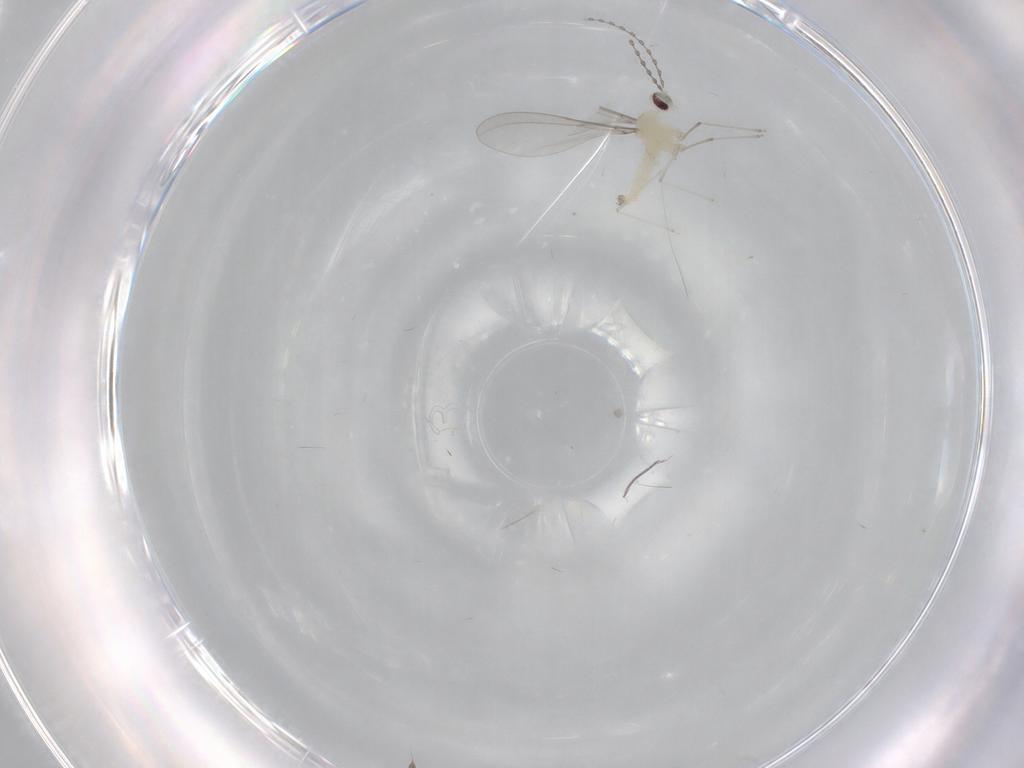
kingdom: Animalia
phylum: Arthropoda
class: Insecta
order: Diptera
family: Cecidomyiidae
